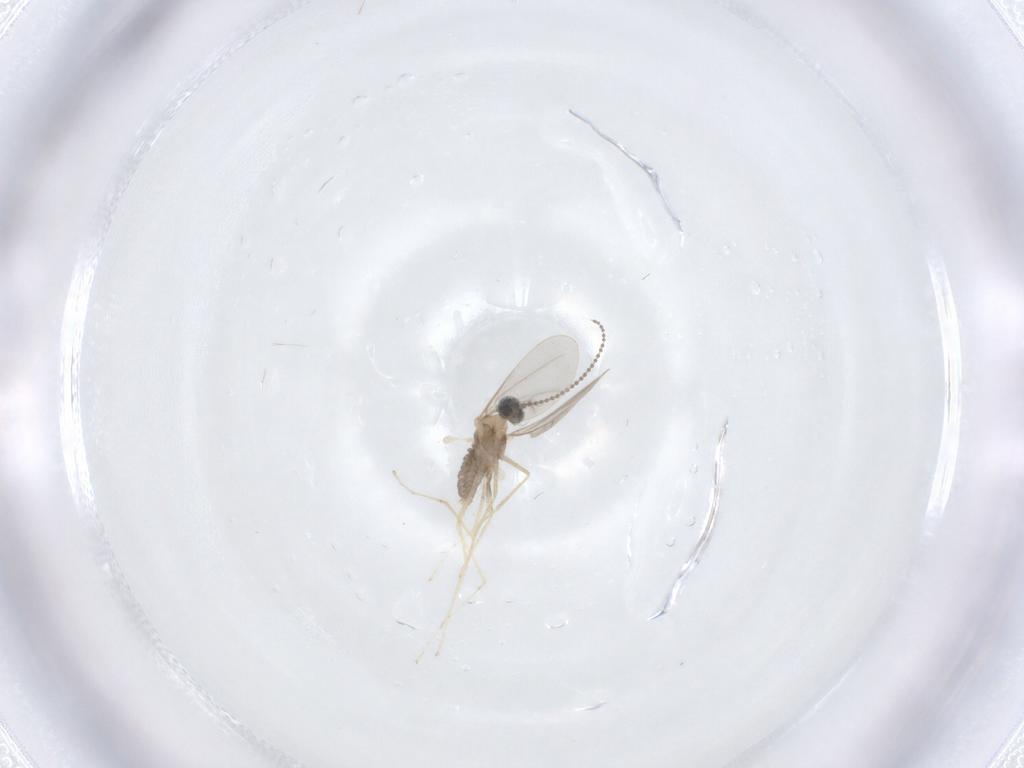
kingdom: Animalia
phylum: Arthropoda
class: Insecta
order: Diptera
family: Cecidomyiidae
